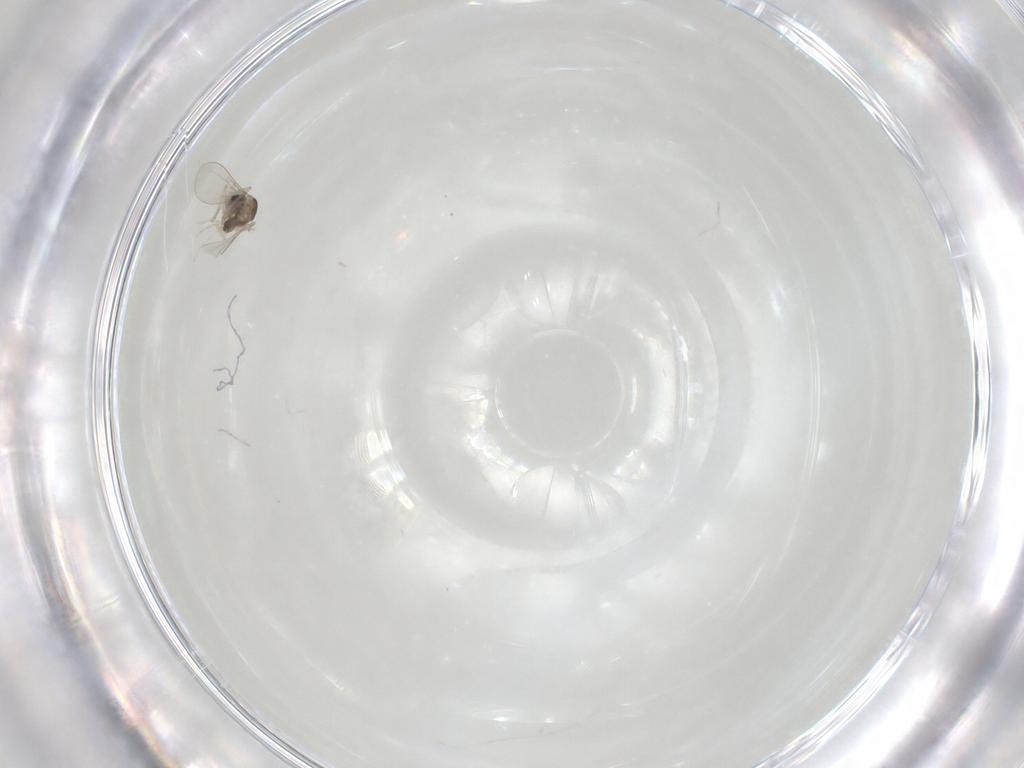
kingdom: Animalia
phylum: Arthropoda
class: Insecta
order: Diptera
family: Cecidomyiidae
